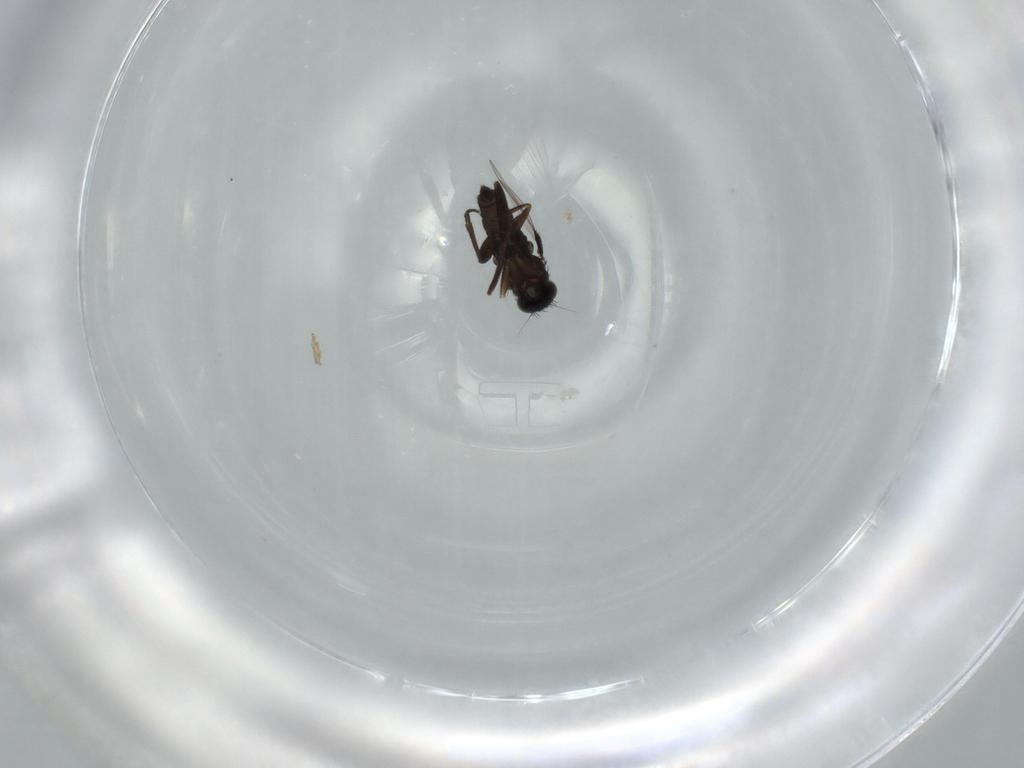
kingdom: Animalia
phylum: Arthropoda
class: Insecta
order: Diptera
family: Phoridae
